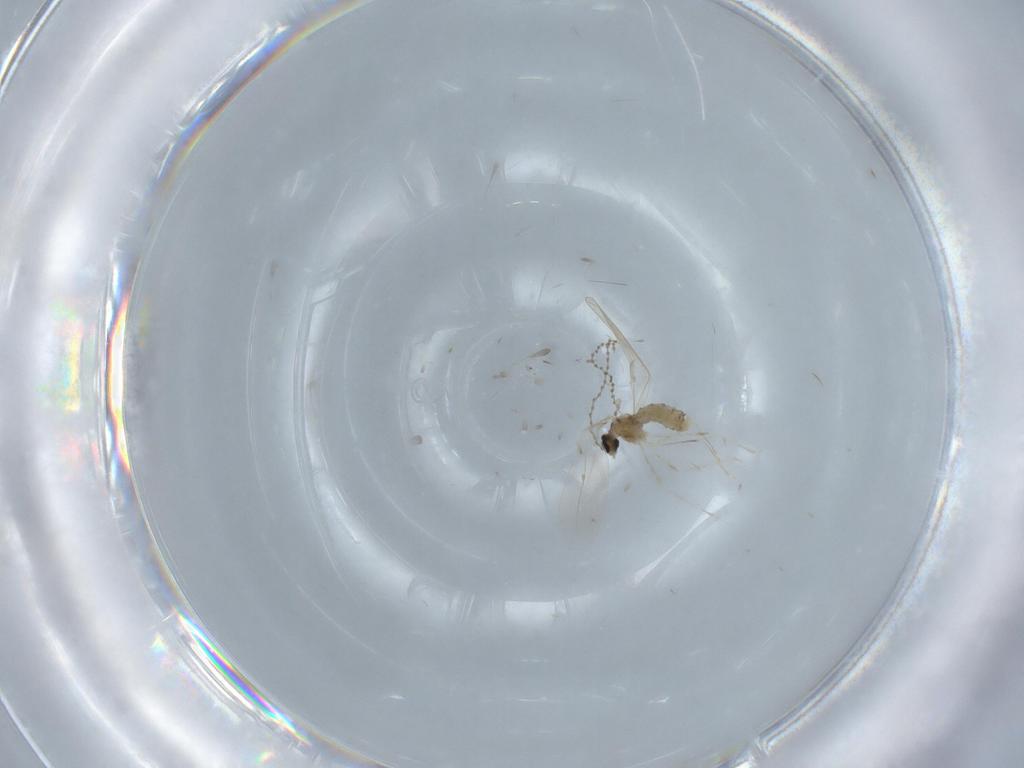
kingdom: Animalia
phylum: Arthropoda
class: Insecta
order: Diptera
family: Cecidomyiidae
